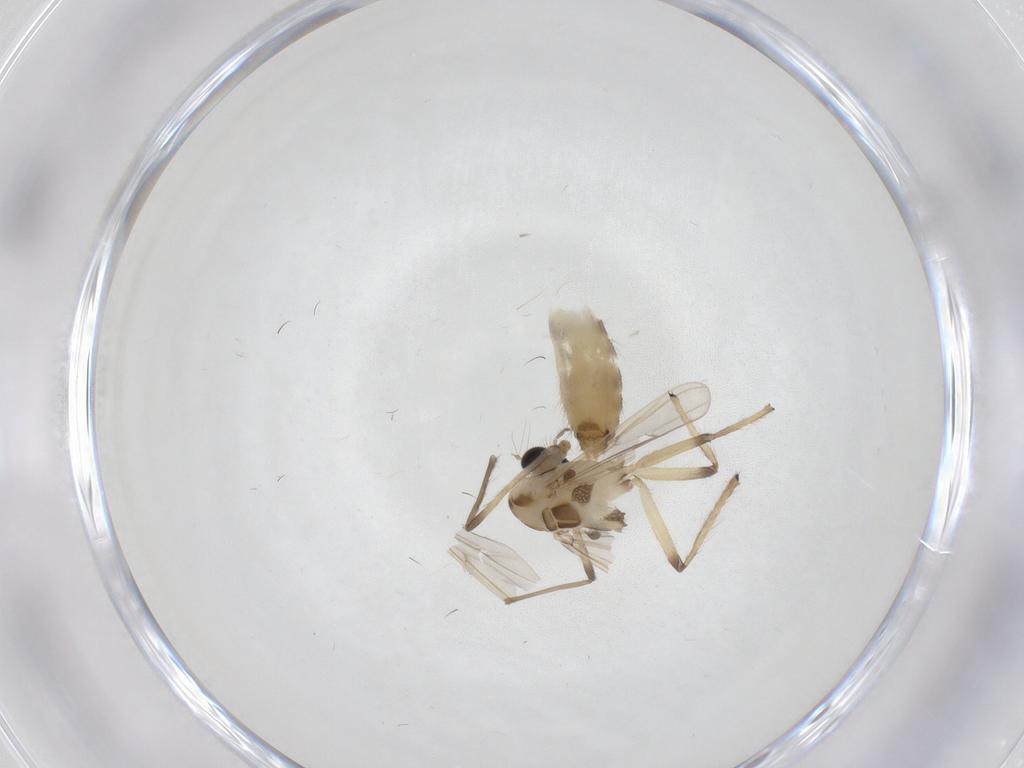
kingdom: Animalia
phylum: Arthropoda
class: Insecta
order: Diptera
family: Chironomidae
